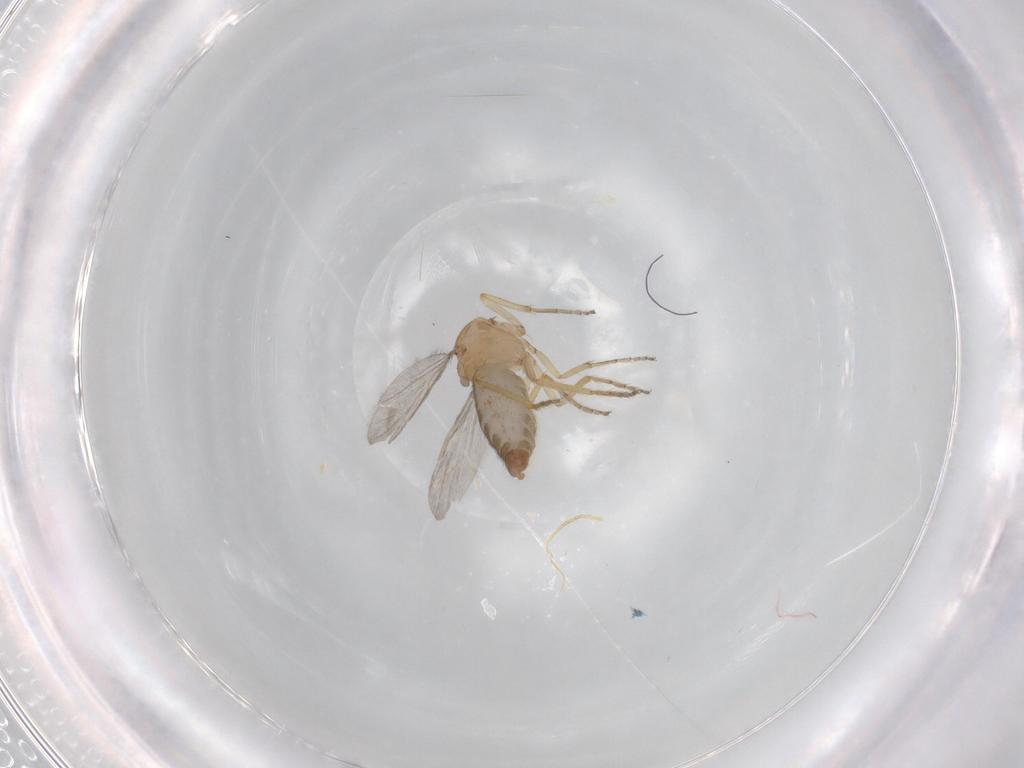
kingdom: Animalia
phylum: Arthropoda
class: Insecta
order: Diptera
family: Ceratopogonidae
